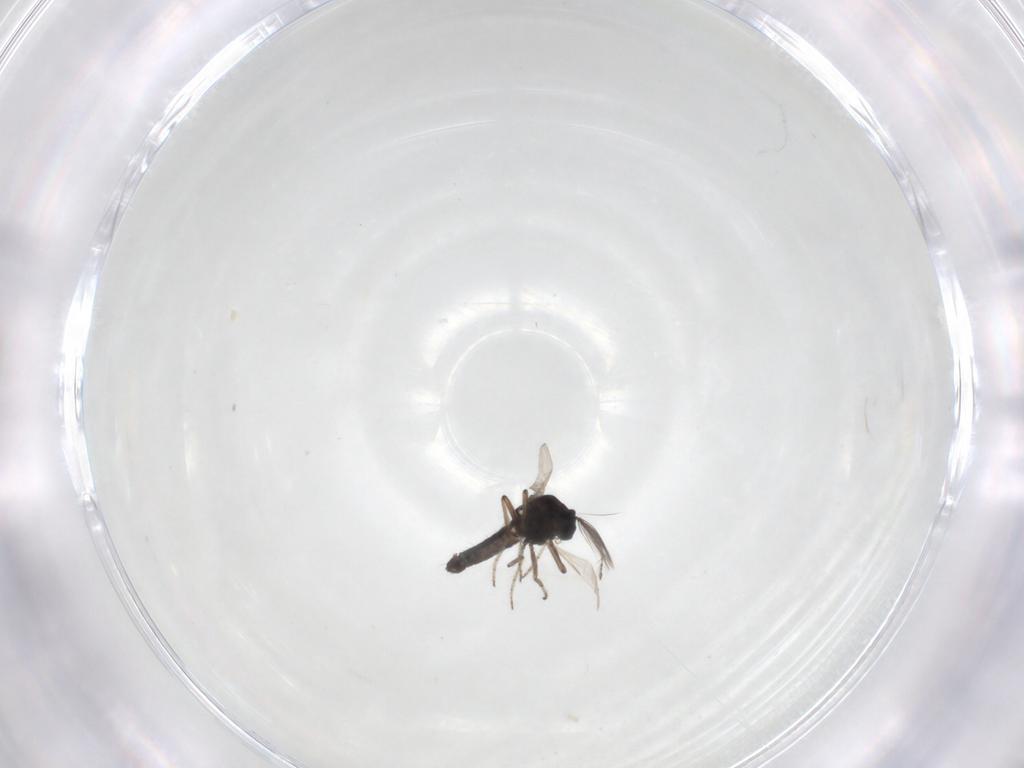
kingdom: Animalia
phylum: Arthropoda
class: Insecta
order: Diptera
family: Ceratopogonidae
